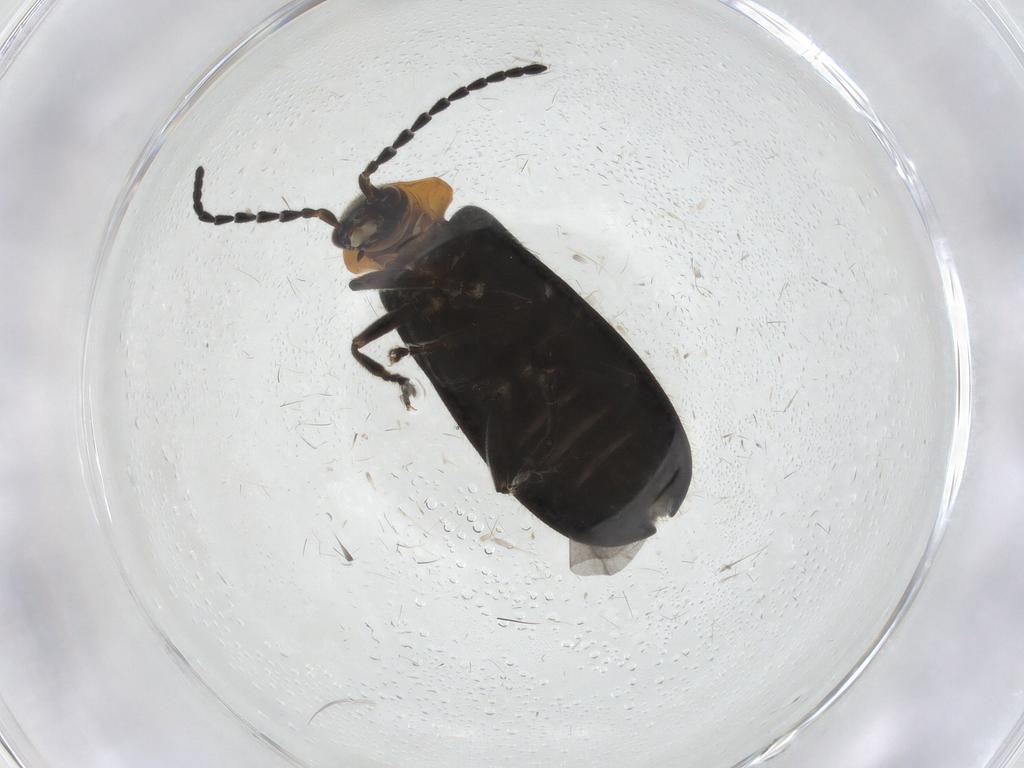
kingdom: Animalia
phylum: Arthropoda
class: Insecta
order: Coleoptera
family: Cantharidae
